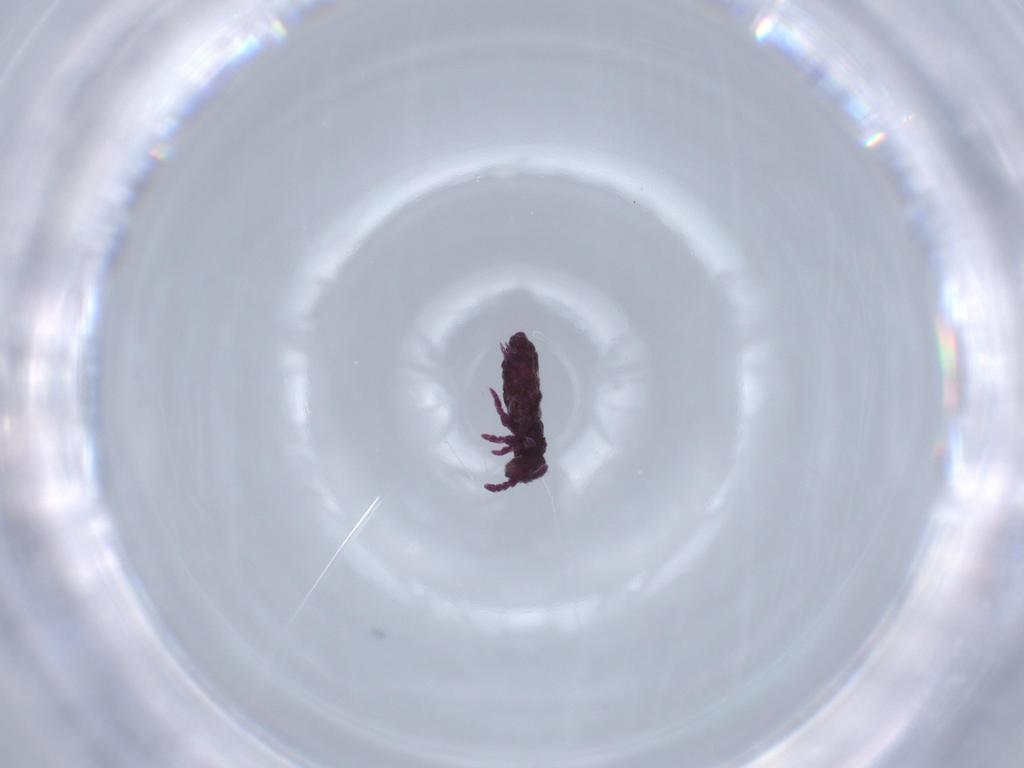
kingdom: Animalia
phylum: Arthropoda
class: Collembola
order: Poduromorpha
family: Hypogastruridae
